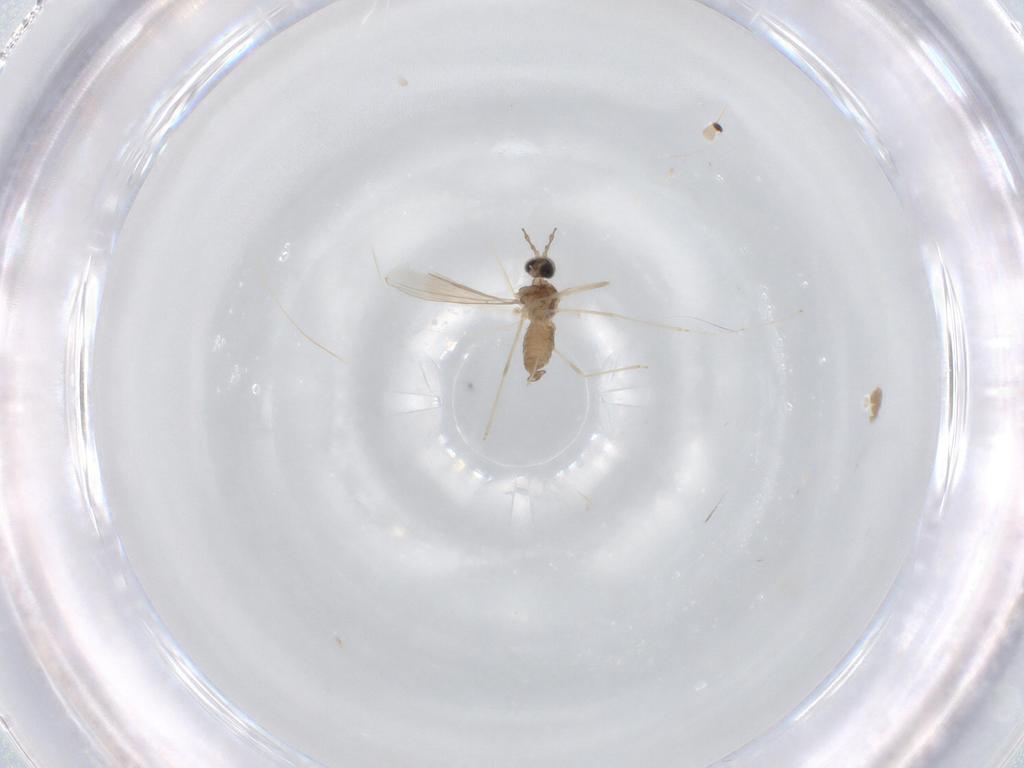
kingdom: Animalia
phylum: Arthropoda
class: Insecta
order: Diptera
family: Cecidomyiidae
